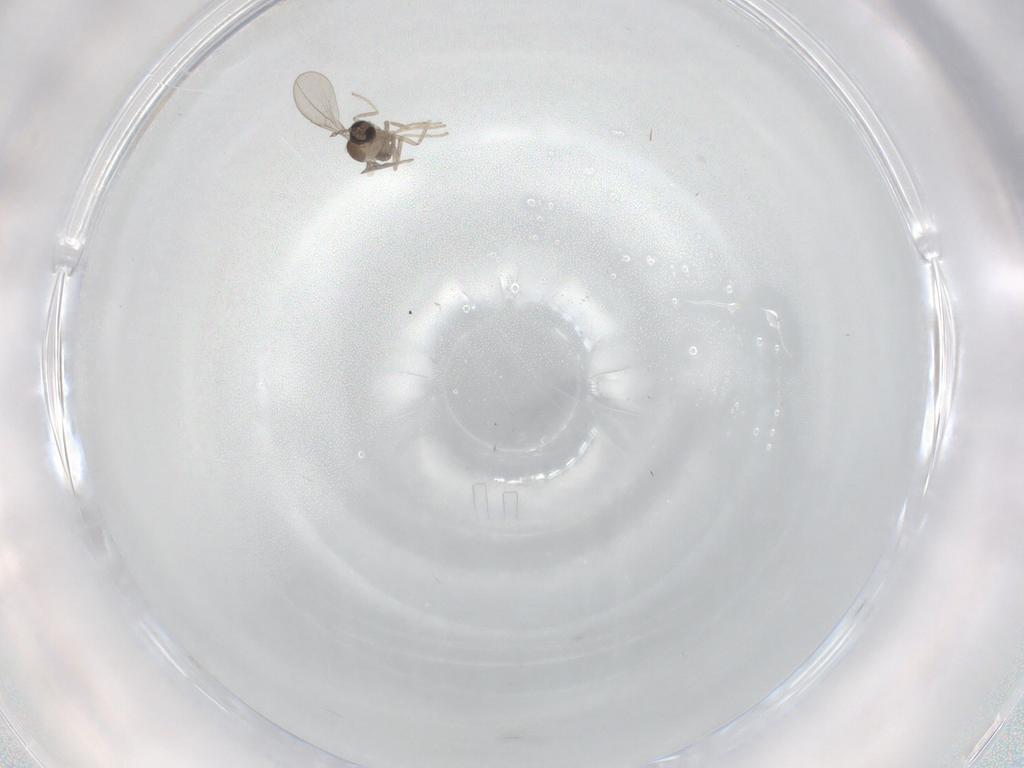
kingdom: Animalia
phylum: Arthropoda
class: Insecta
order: Diptera
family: Cecidomyiidae
